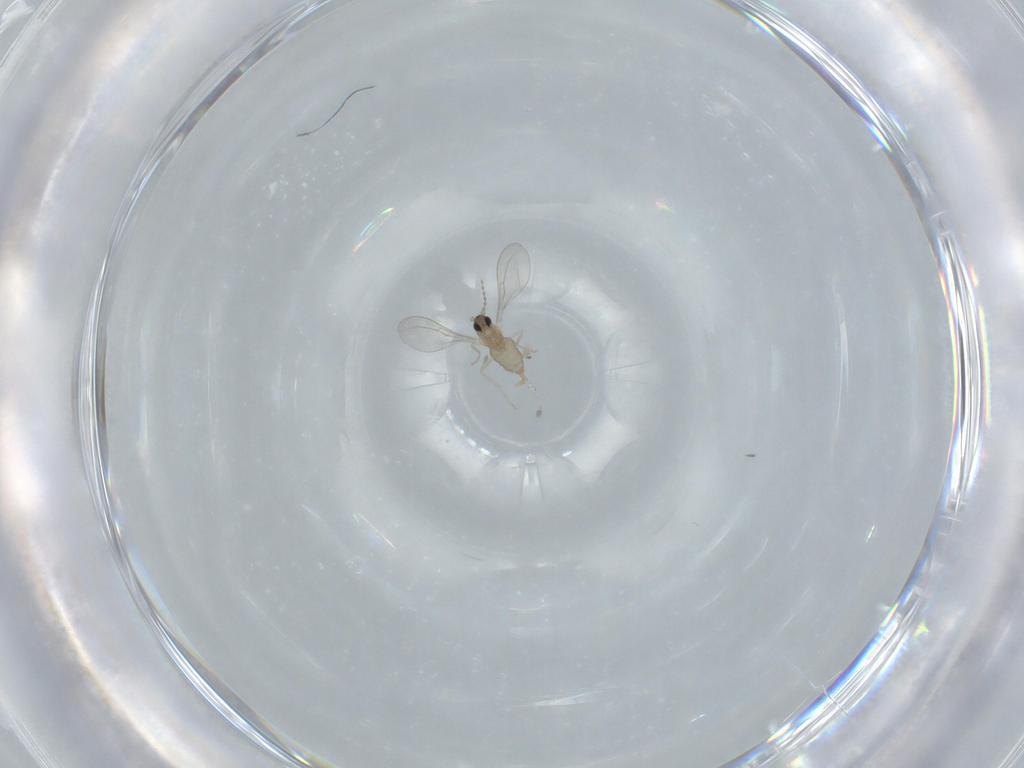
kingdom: Animalia
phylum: Arthropoda
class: Insecta
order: Diptera
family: Cecidomyiidae
